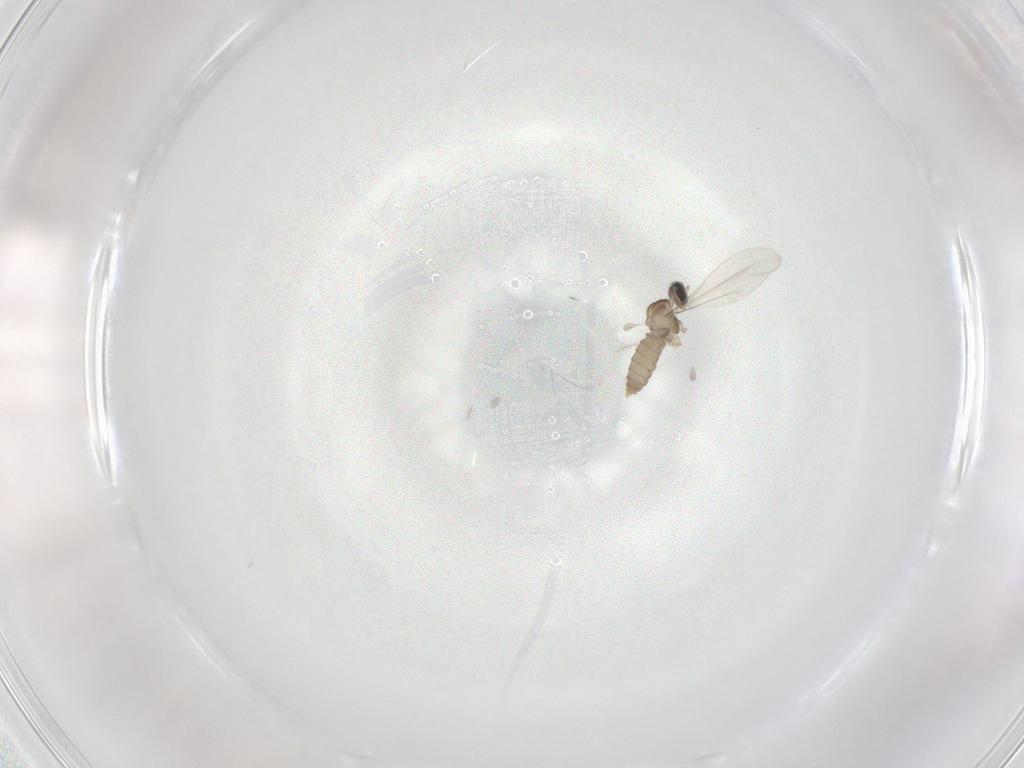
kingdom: Animalia
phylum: Arthropoda
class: Insecta
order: Diptera
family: Cecidomyiidae
